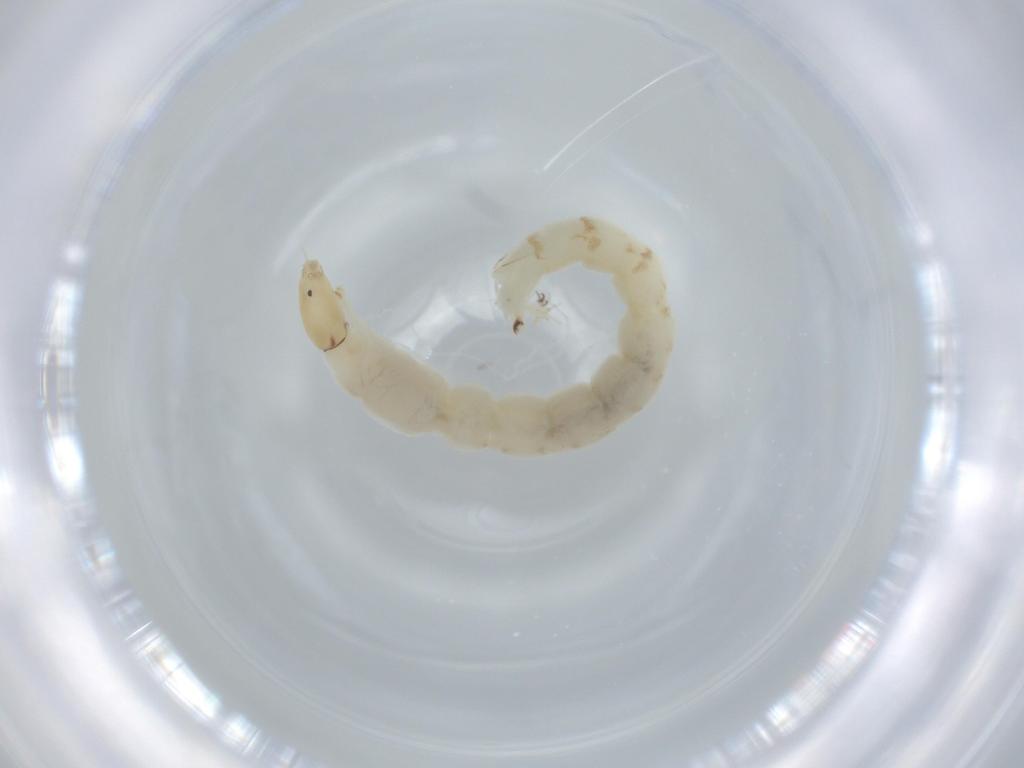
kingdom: Animalia
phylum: Arthropoda
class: Insecta
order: Diptera
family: Chironomidae
